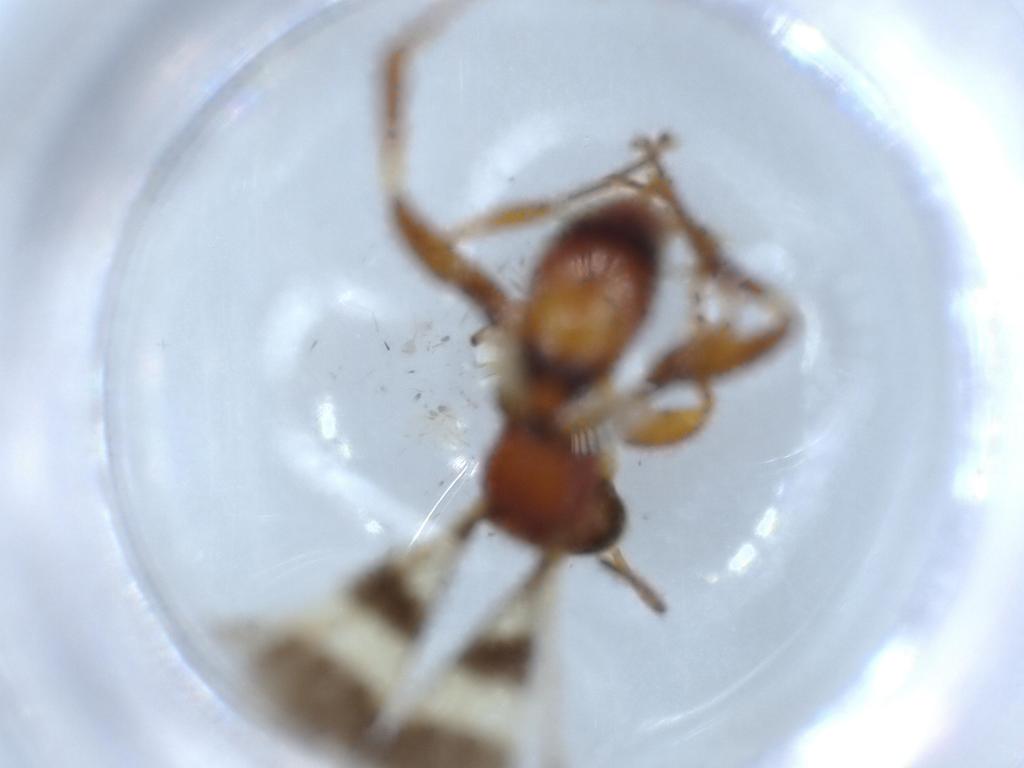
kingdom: Animalia
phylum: Arthropoda
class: Insecta
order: Hymenoptera
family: Pompilidae
